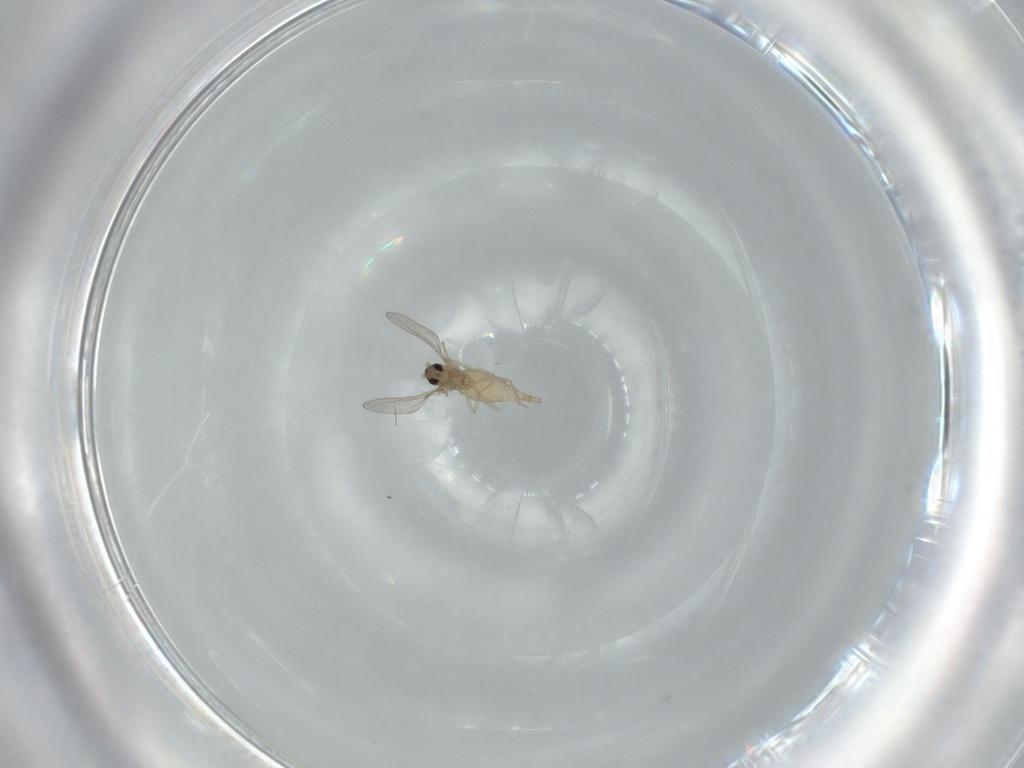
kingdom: Animalia
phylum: Arthropoda
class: Insecta
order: Diptera
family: Cecidomyiidae
